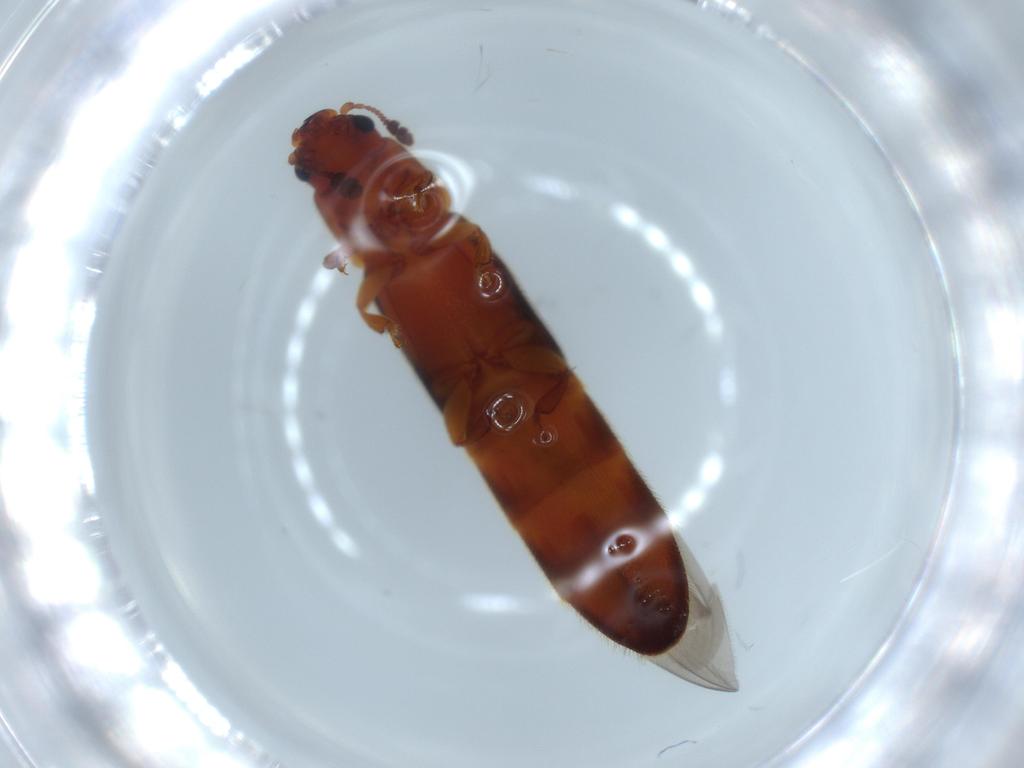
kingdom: Animalia
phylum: Arthropoda
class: Insecta
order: Coleoptera
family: Nitidulidae
